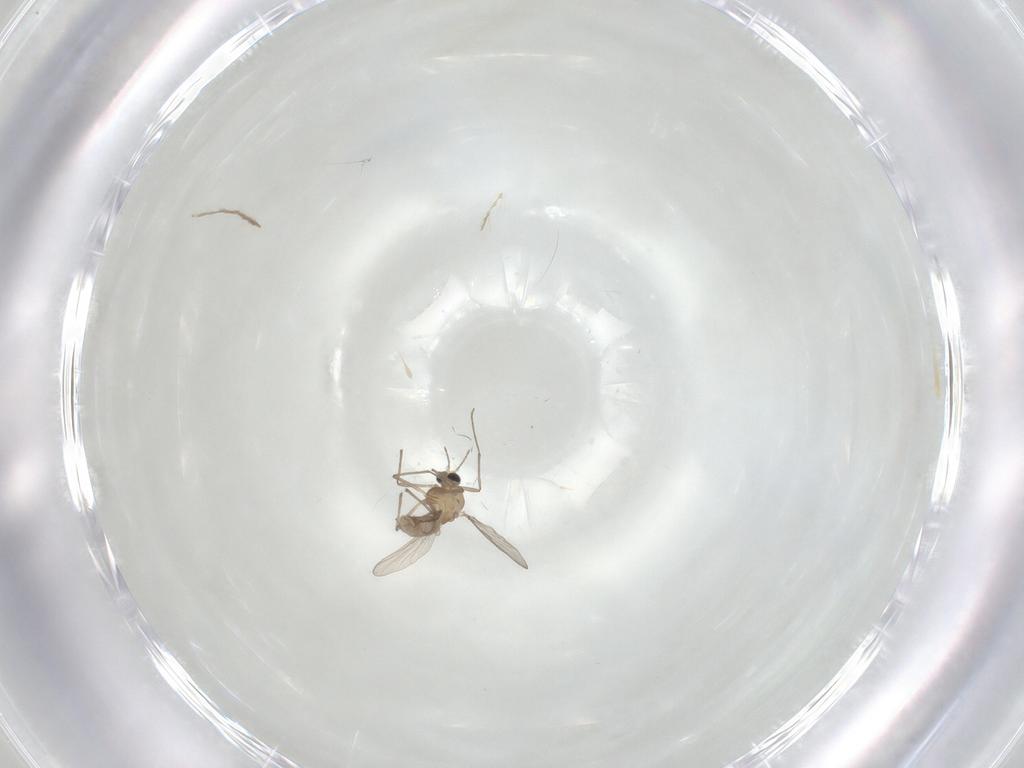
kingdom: Animalia
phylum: Arthropoda
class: Insecta
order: Diptera
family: Chironomidae
